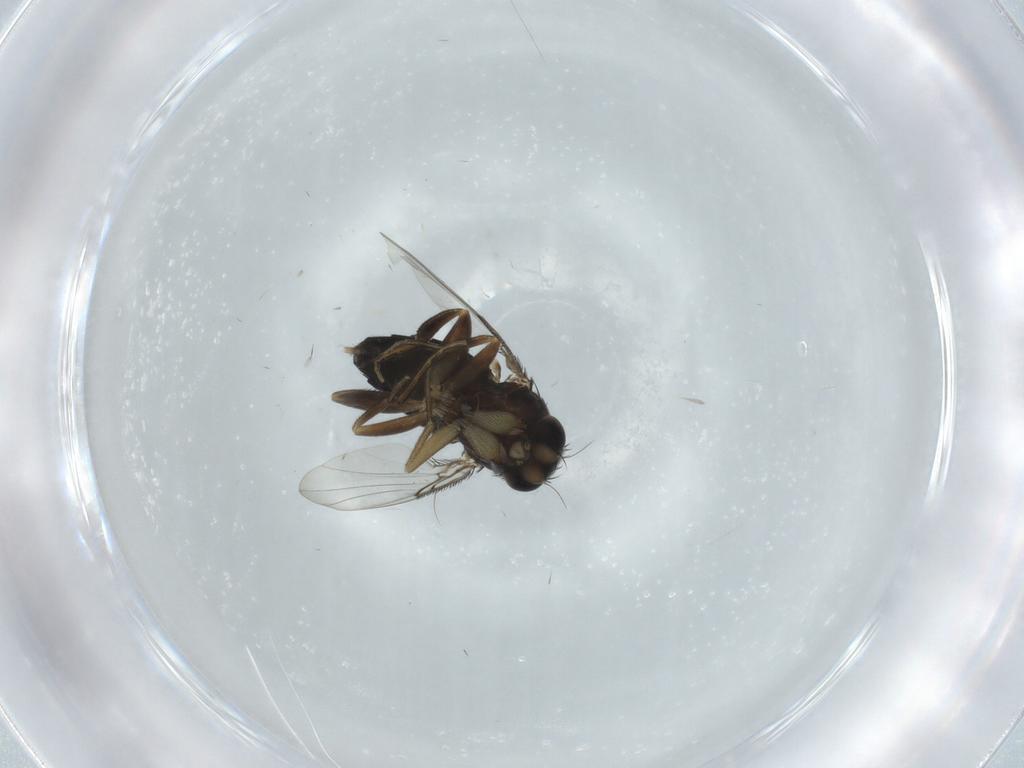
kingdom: Animalia
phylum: Arthropoda
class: Insecta
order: Diptera
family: Phoridae
